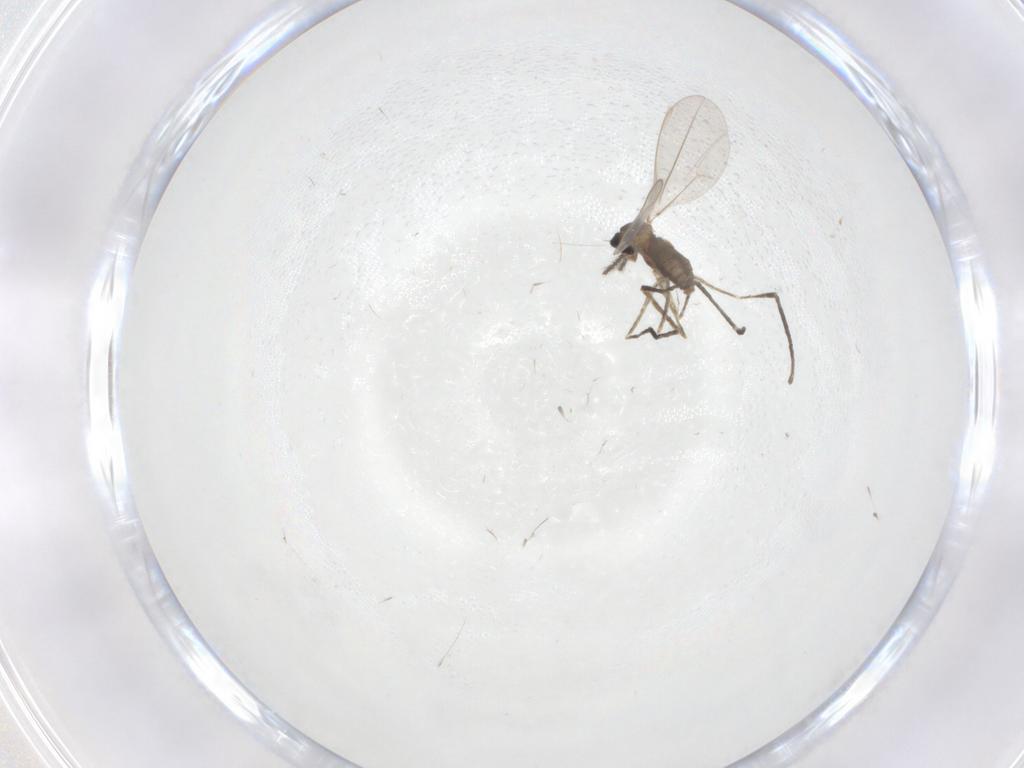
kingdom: Animalia
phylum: Arthropoda
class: Insecta
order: Diptera
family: Cecidomyiidae
